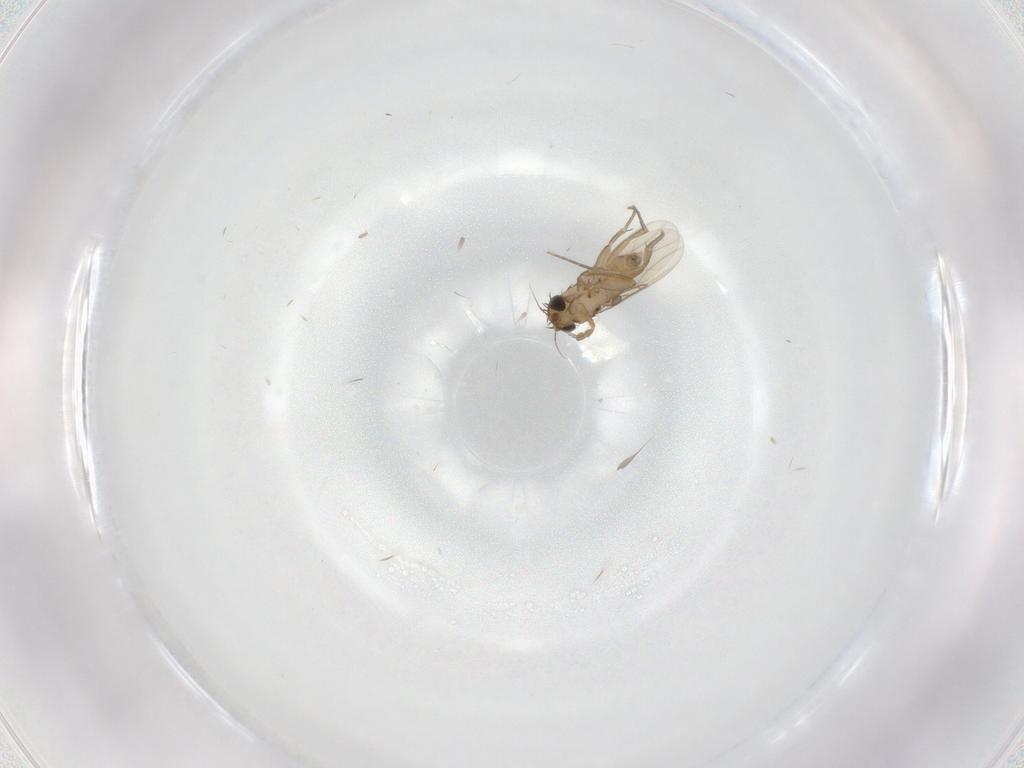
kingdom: Animalia
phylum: Arthropoda
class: Insecta
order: Diptera
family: Phoridae
